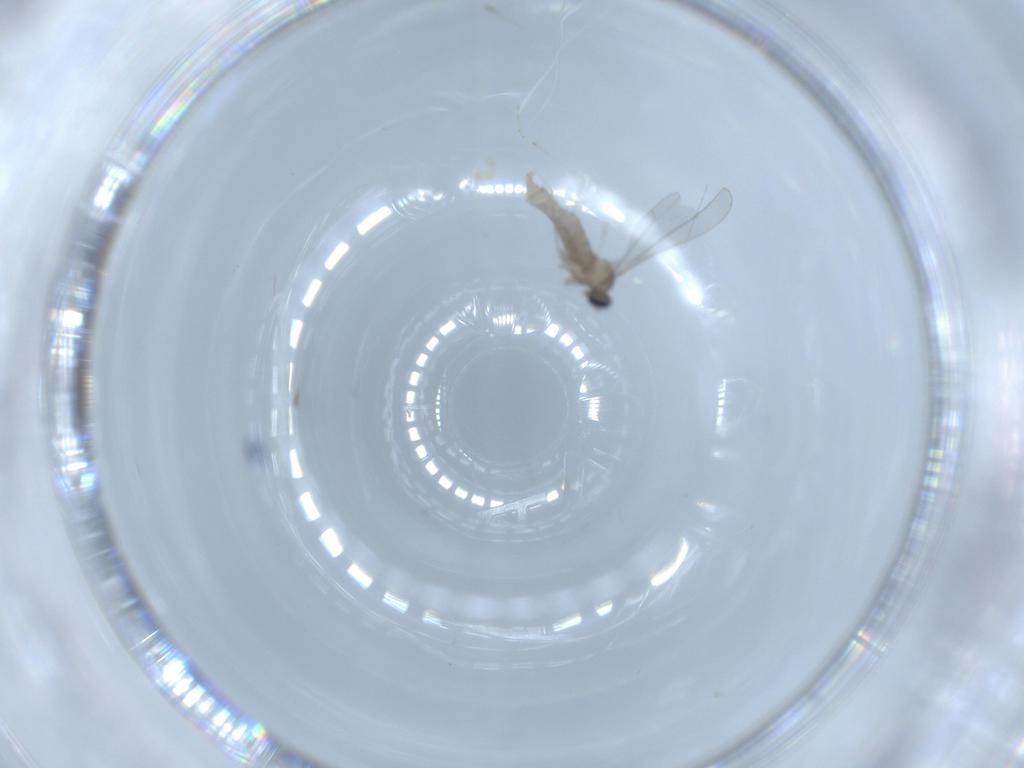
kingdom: Animalia
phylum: Arthropoda
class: Insecta
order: Diptera
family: Cecidomyiidae
